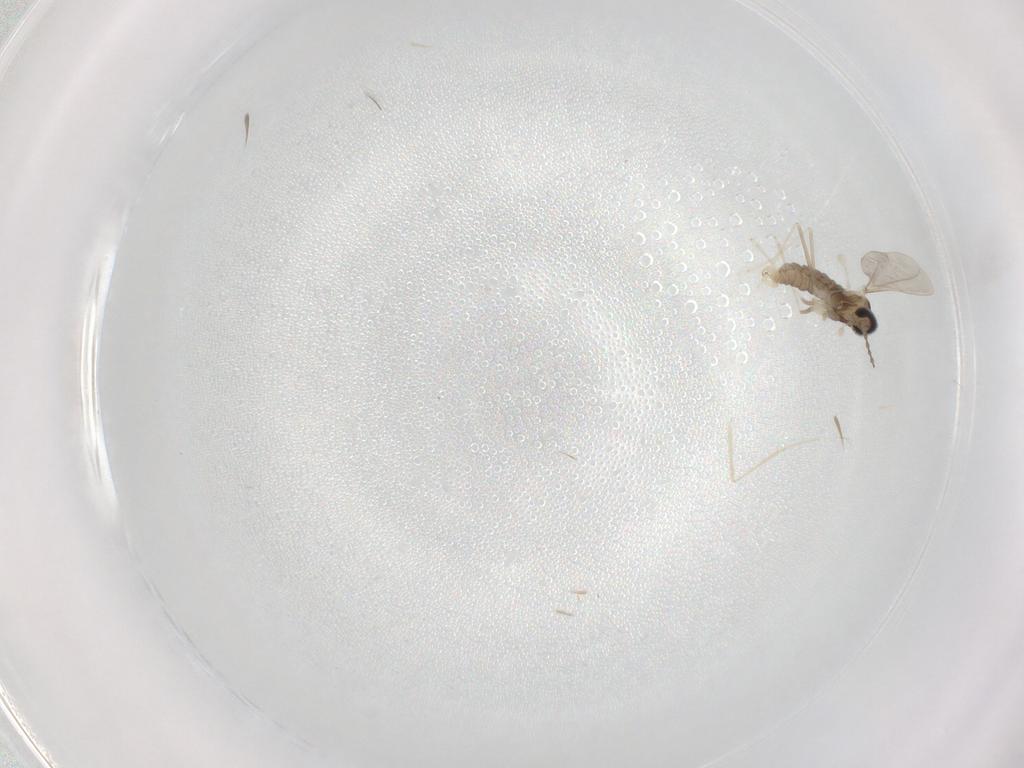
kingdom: Animalia
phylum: Arthropoda
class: Insecta
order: Diptera
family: Cecidomyiidae
